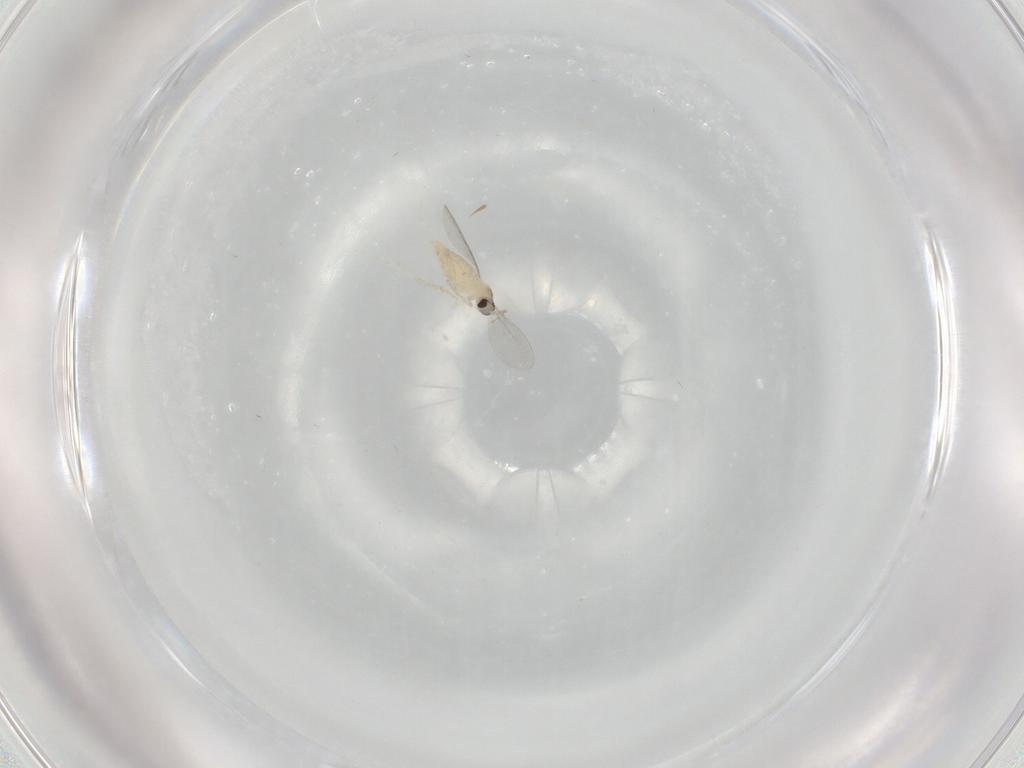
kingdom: Animalia
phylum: Arthropoda
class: Insecta
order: Diptera
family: Cecidomyiidae
